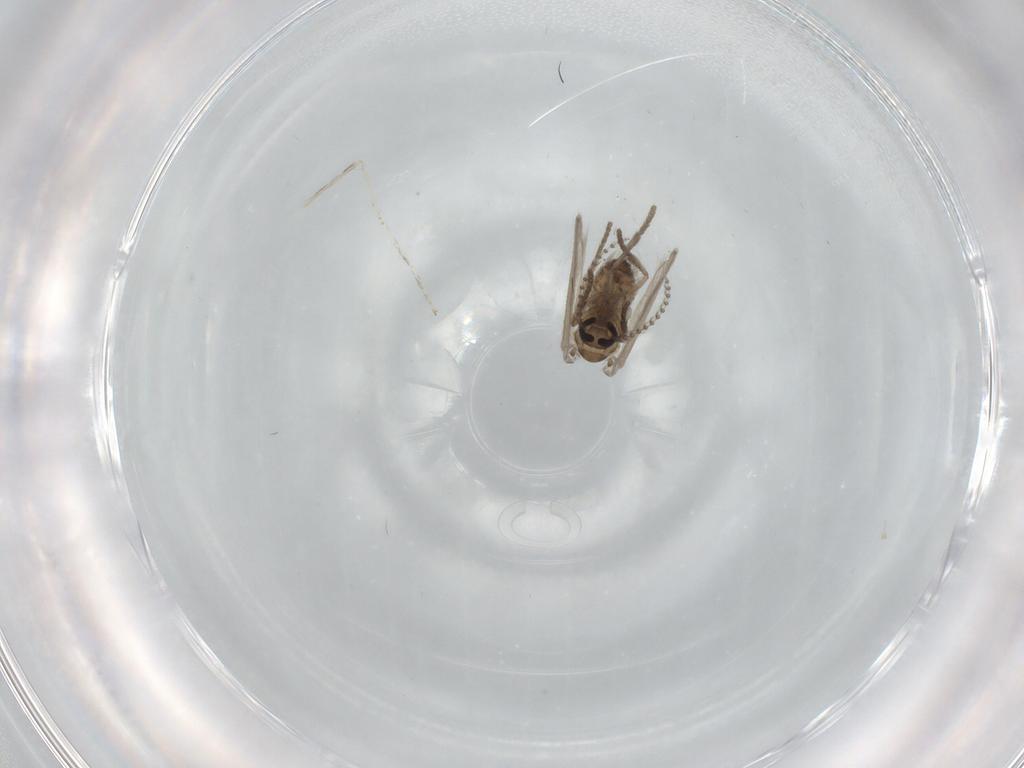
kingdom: Animalia
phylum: Arthropoda
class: Insecta
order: Diptera
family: Psychodidae
